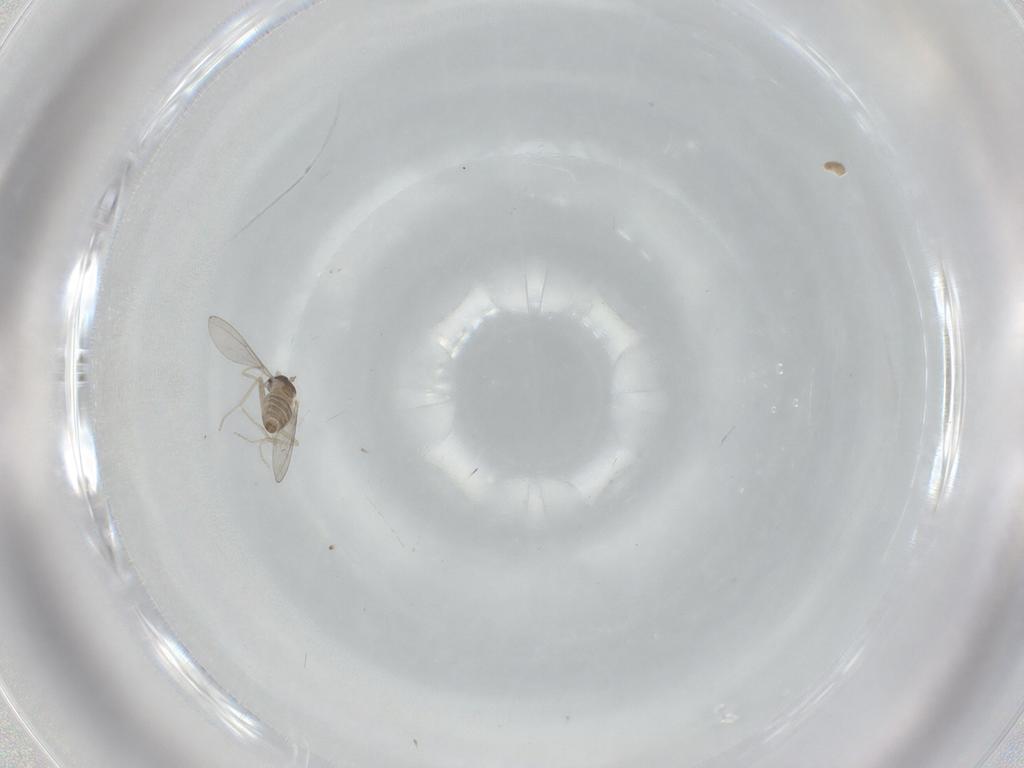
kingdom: Animalia
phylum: Arthropoda
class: Insecta
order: Diptera
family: Cecidomyiidae
